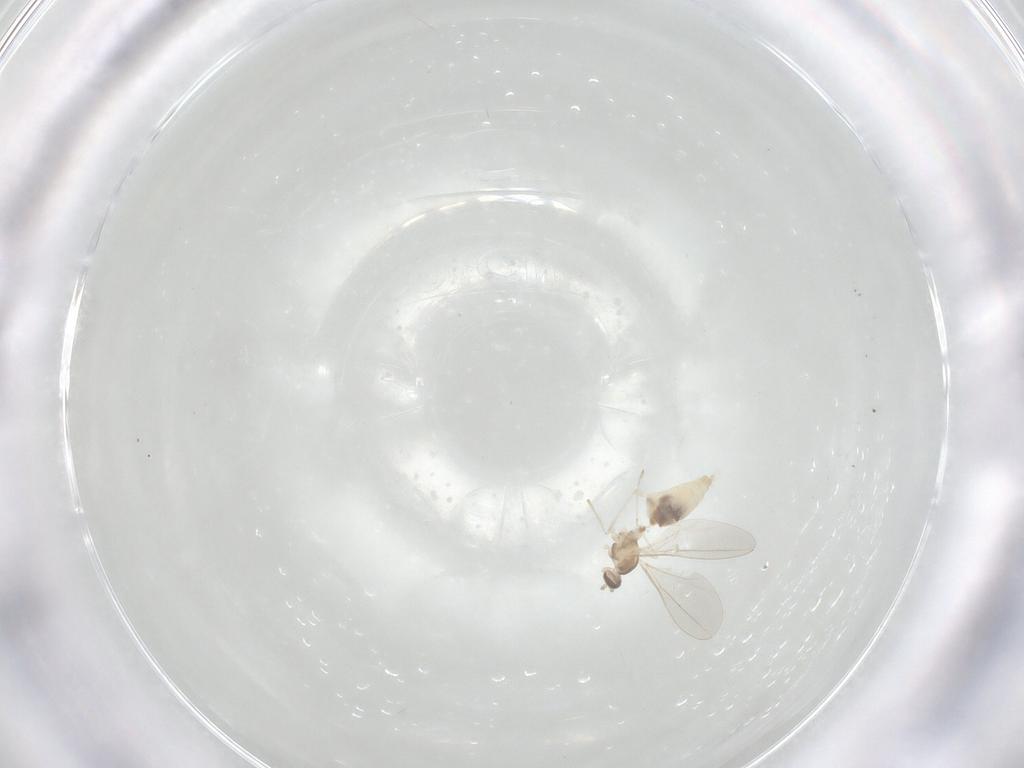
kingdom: Animalia
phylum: Arthropoda
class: Insecta
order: Diptera
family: Cecidomyiidae
